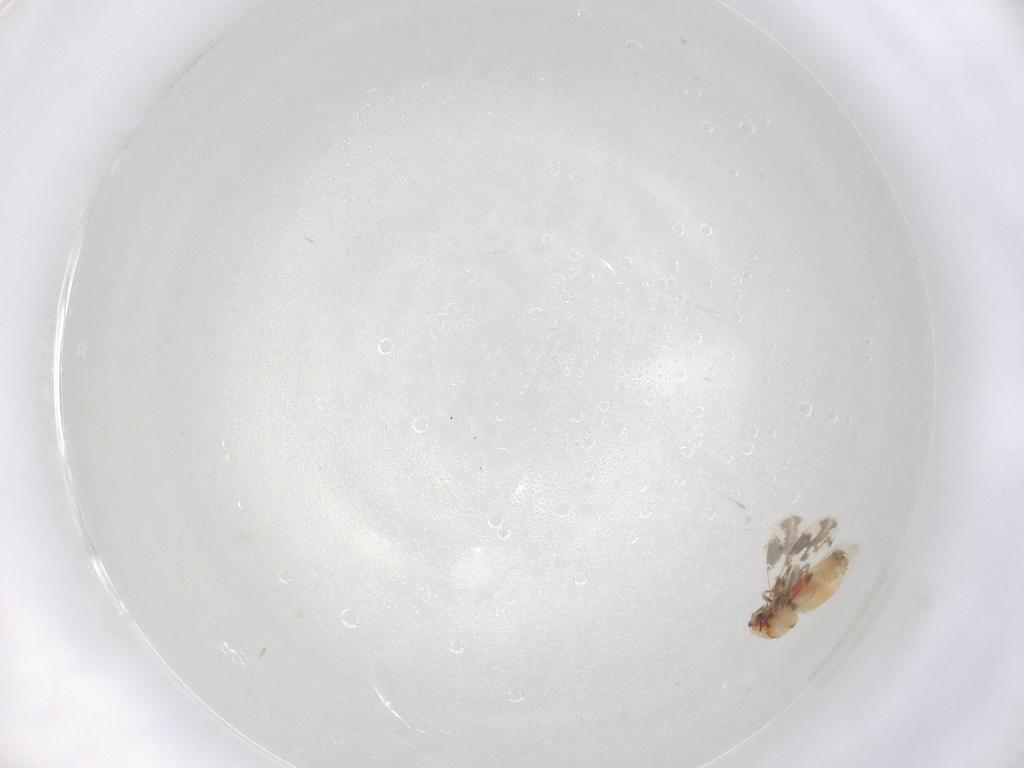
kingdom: Animalia
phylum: Arthropoda
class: Insecta
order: Hemiptera
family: Aleyrodidae
